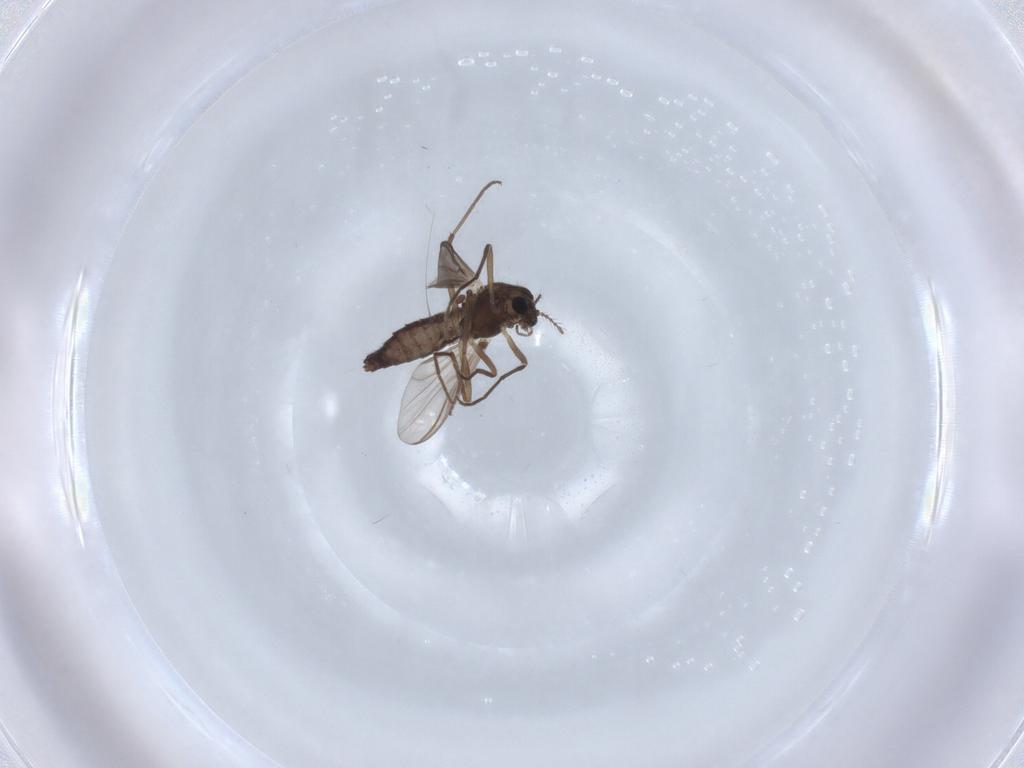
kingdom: Animalia
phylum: Arthropoda
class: Insecta
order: Diptera
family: Chironomidae
